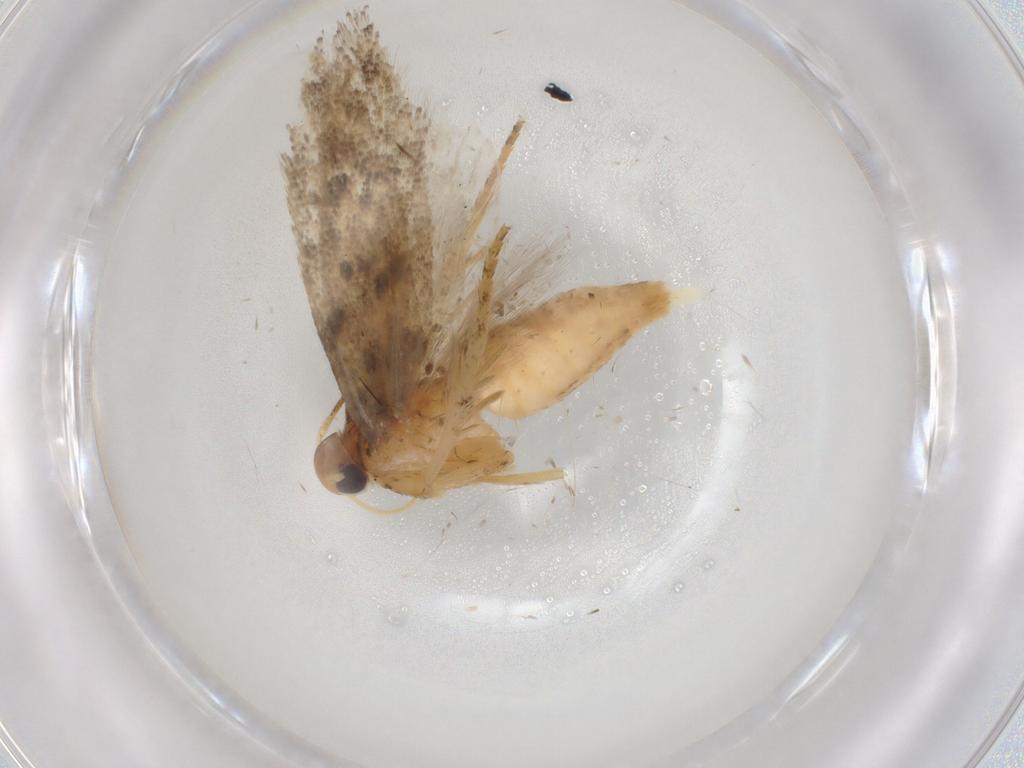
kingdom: Animalia
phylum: Arthropoda
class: Insecta
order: Lepidoptera
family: Gelechiidae
